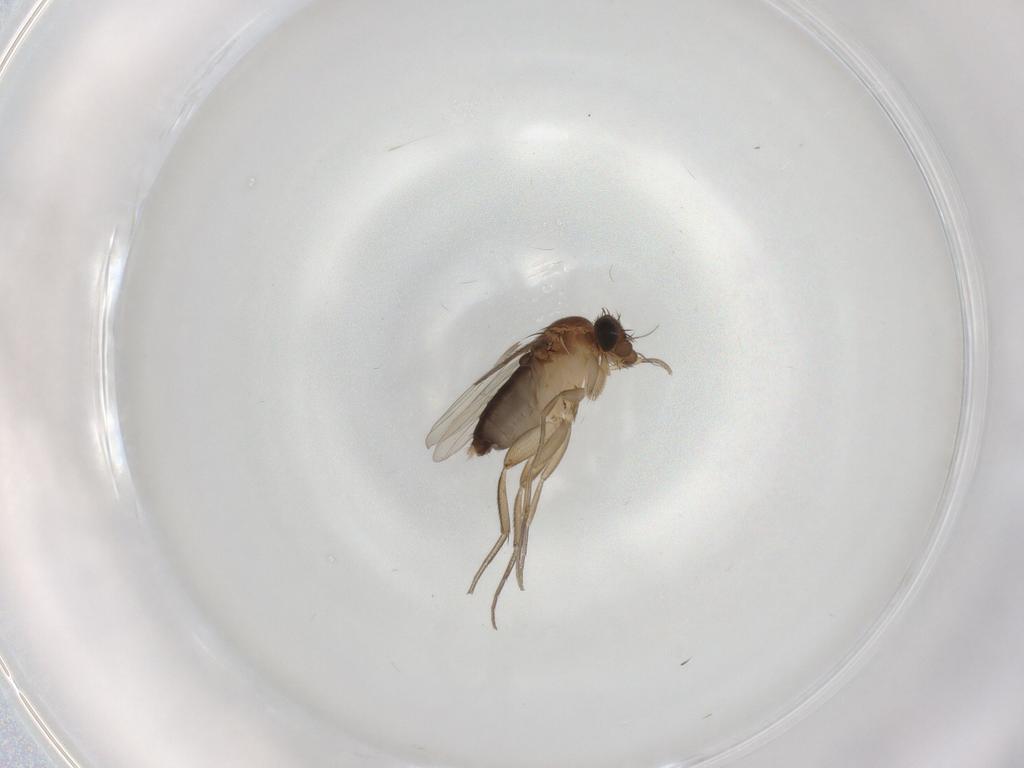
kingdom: Animalia
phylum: Arthropoda
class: Insecta
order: Diptera
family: Phoridae
